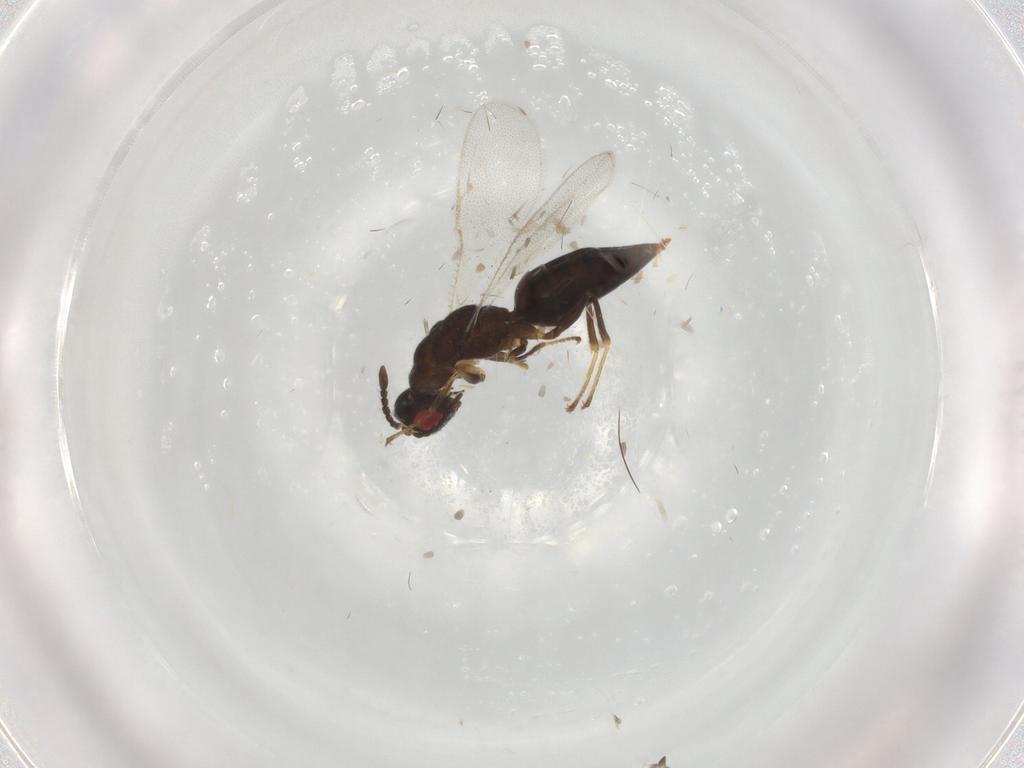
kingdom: Animalia
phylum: Arthropoda
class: Insecta
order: Hymenoptera
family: Eurytomidae
